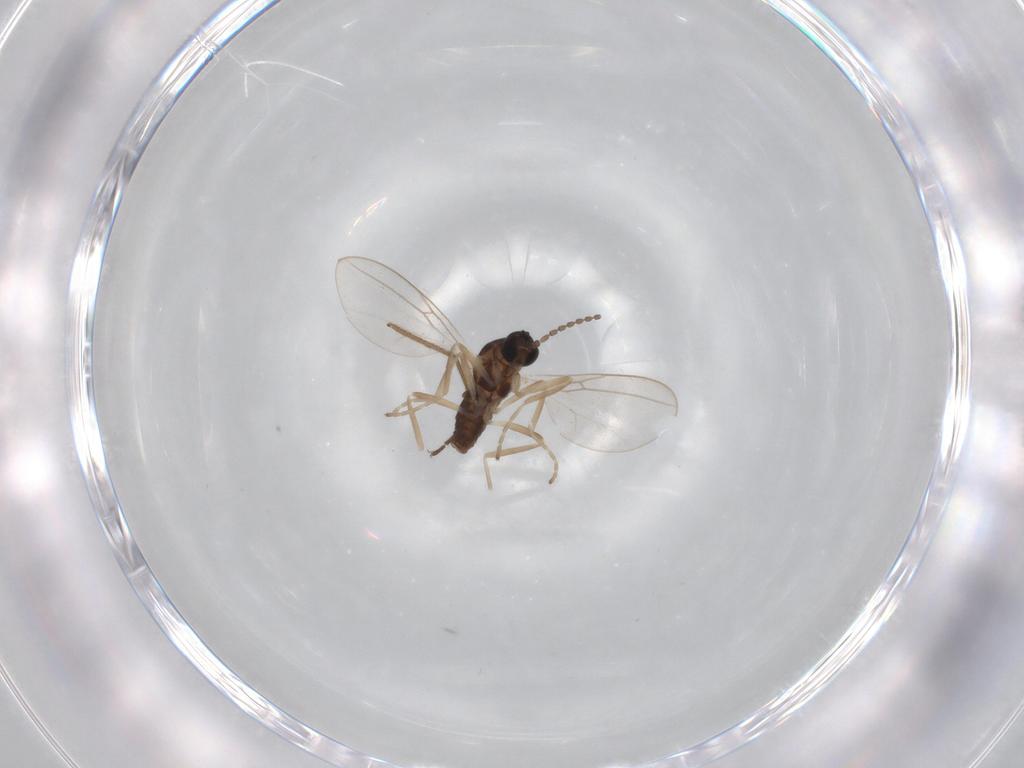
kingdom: Animalia
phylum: Arthropoda
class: Insecta
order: Diptera
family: Cecidomyiidae
